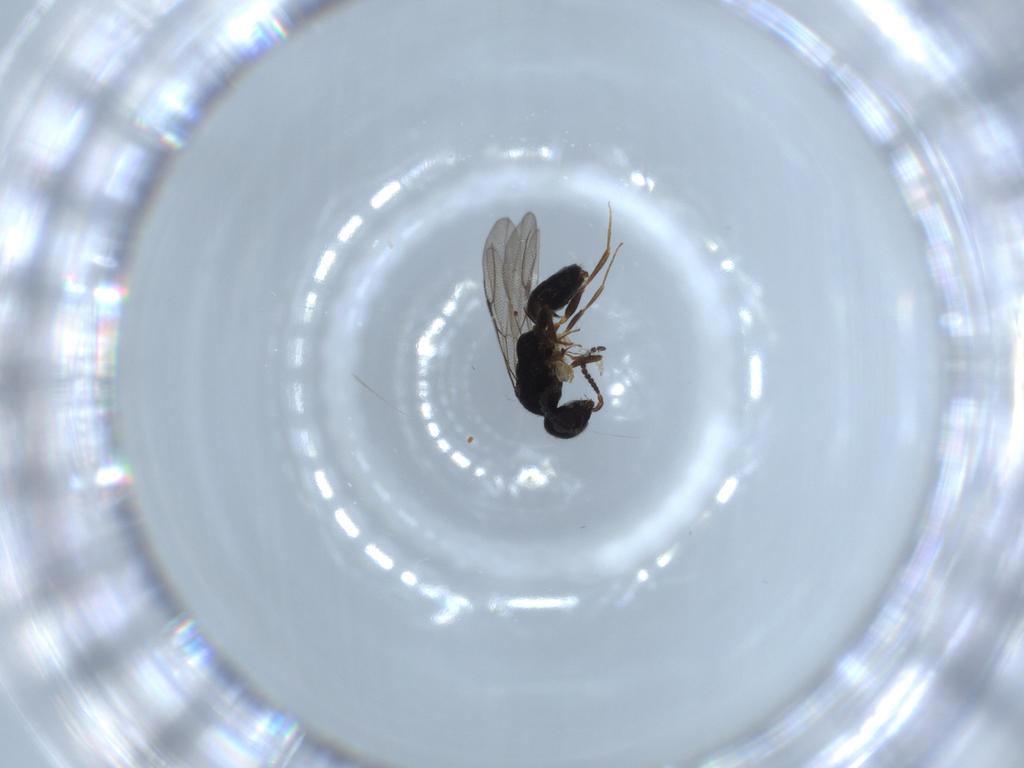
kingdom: Animalia
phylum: Arthropoda
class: Insecta
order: Hymenoptera
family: Bethylidae
